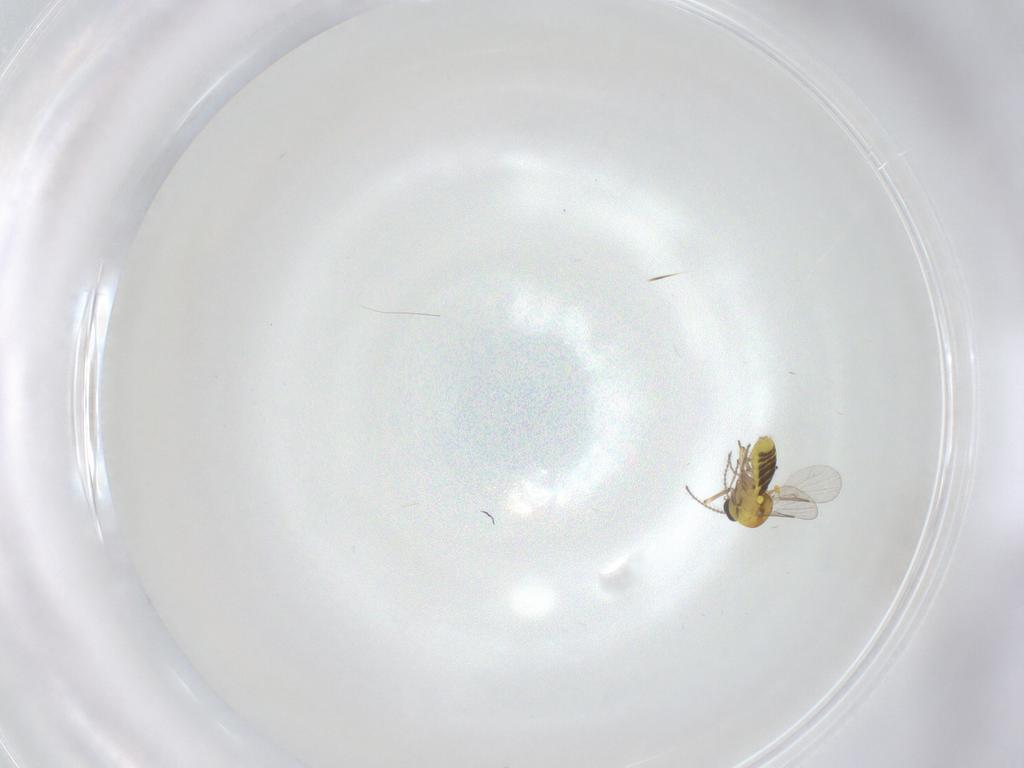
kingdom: Animalia
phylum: Arthropoda
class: Insecta
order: Diptera
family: Ceratopogonidae
